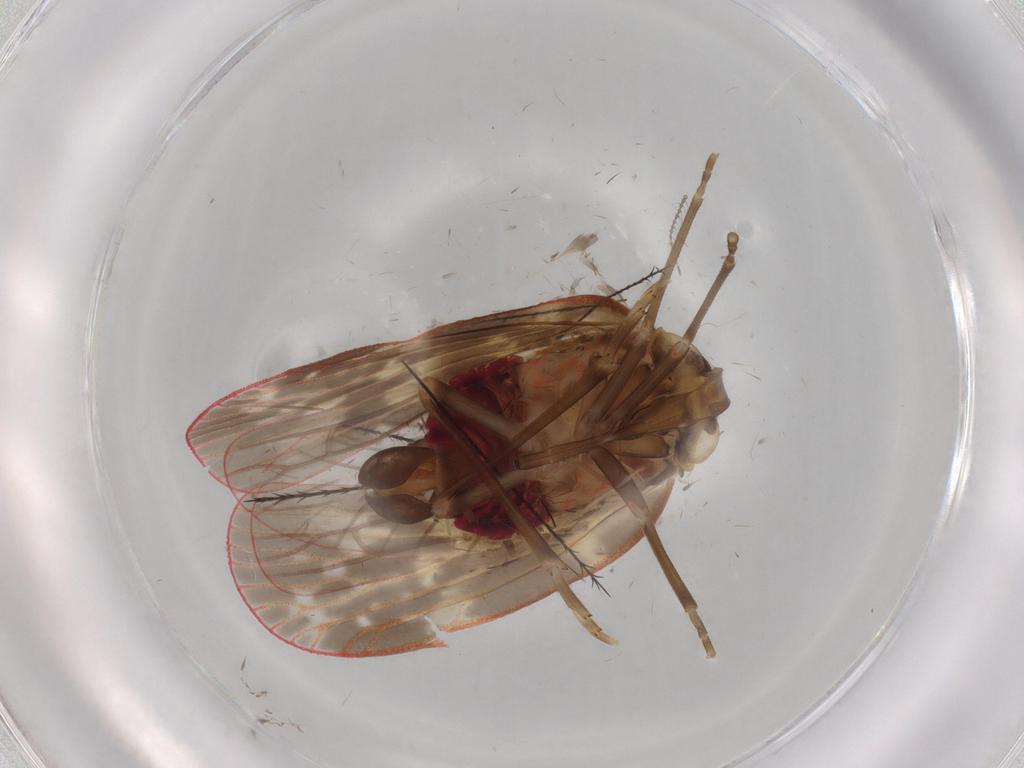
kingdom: Animalia
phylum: Arthropoda
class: Insecta
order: Hemiptera
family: Achilidae
